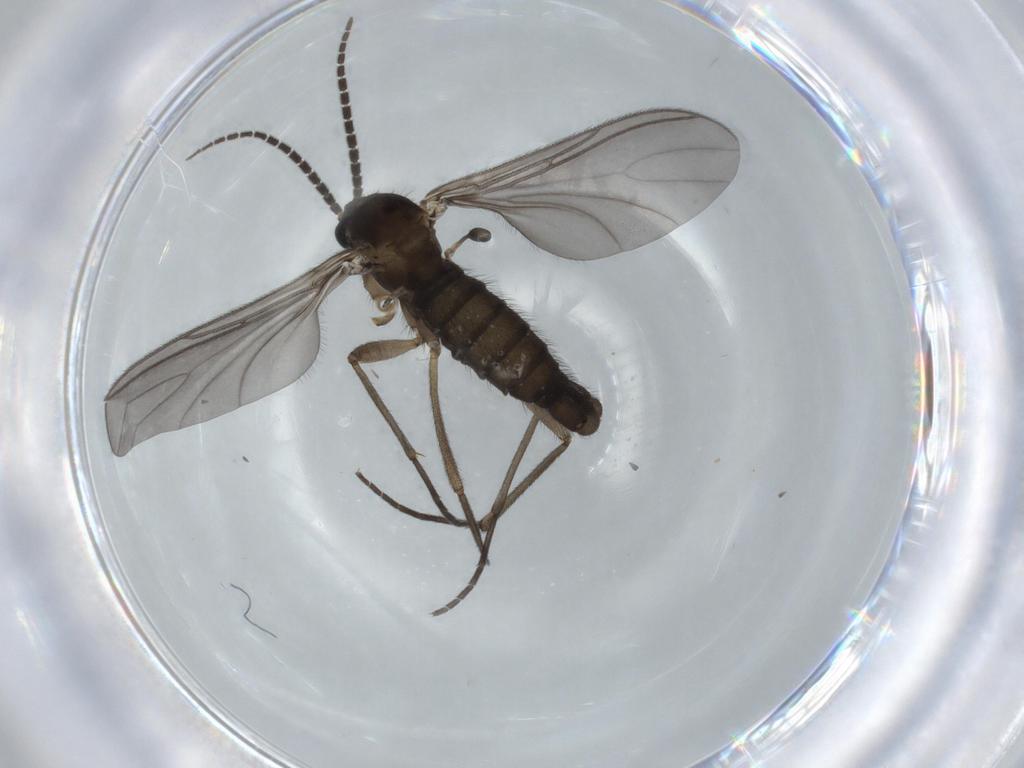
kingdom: Animalia
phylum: Arthropoda
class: Insecta
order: Diptera
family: Sciaridae
